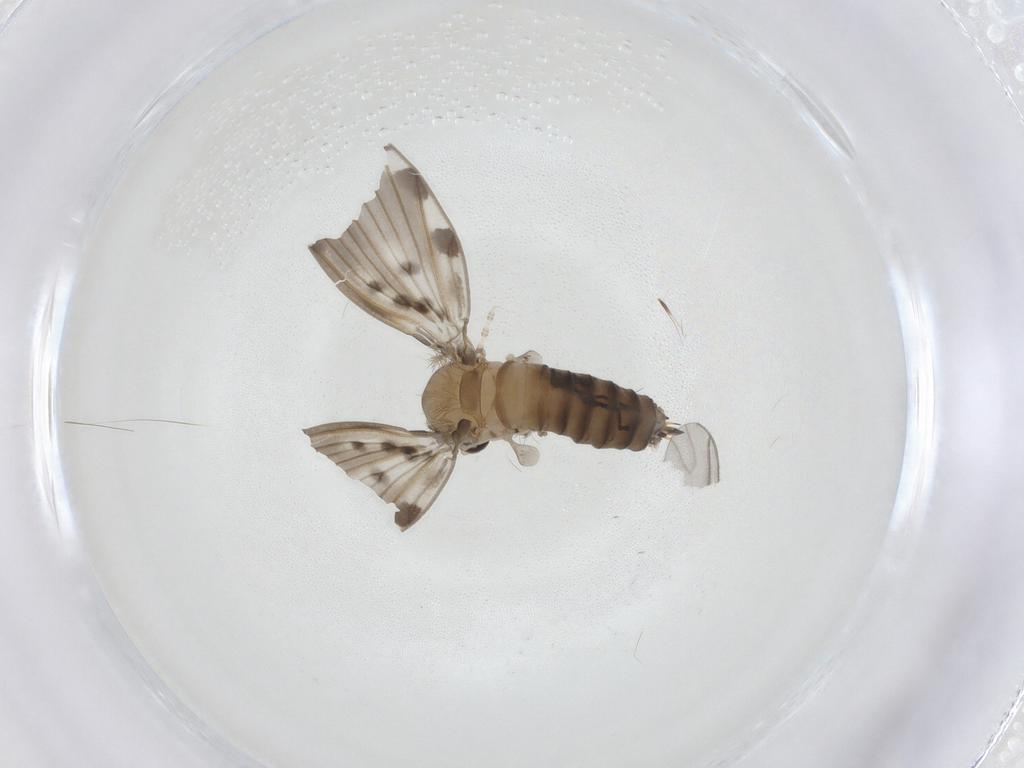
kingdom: Animalia
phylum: Arthropoda
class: Insecta
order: Diptera
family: Psychodidae
